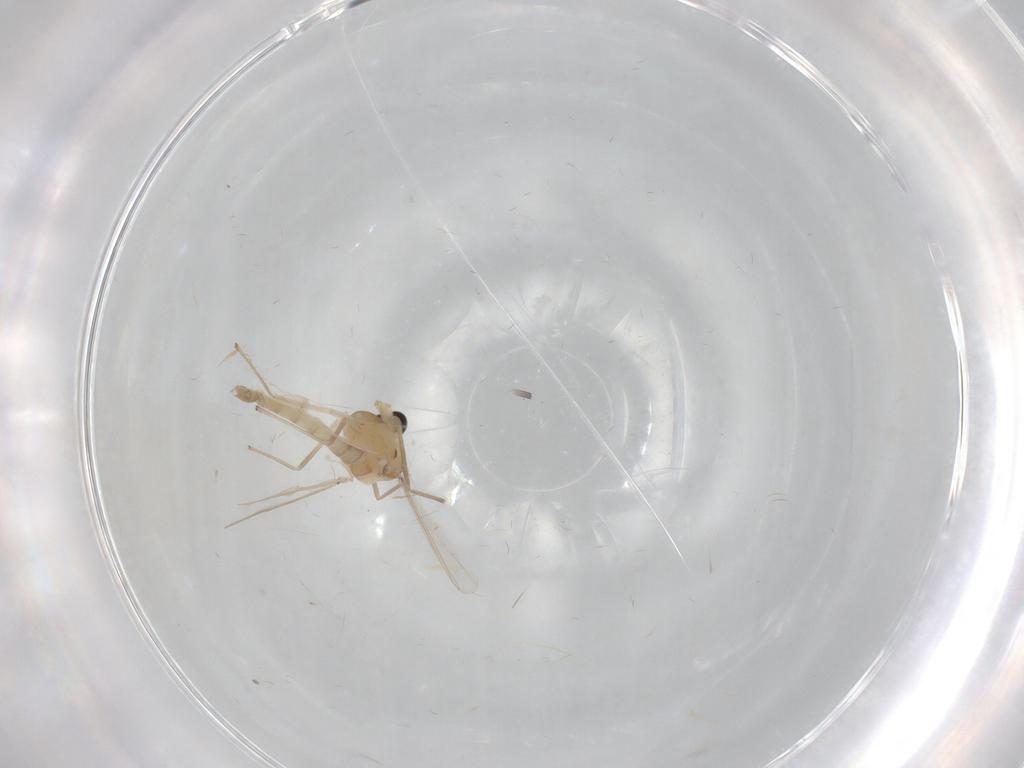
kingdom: Animalia
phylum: Arthropoda
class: Insecta
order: Diptera
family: Chironomidae
